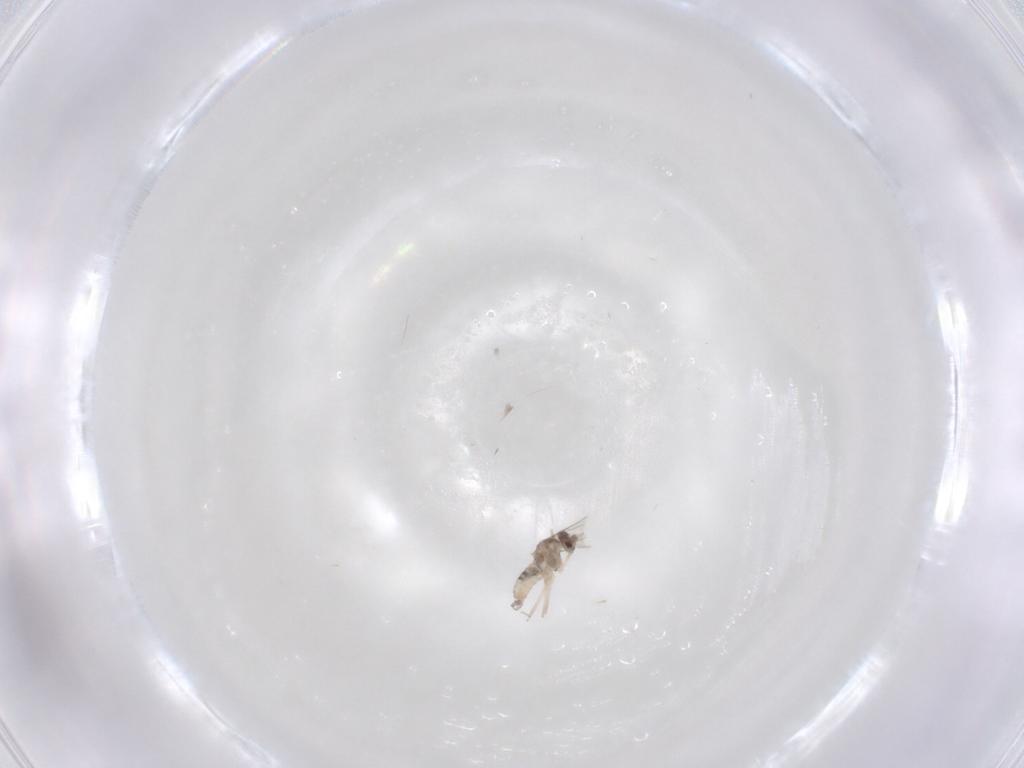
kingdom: Animalia
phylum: Arthropoda
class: Insecta
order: Diptera
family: Cecidomyiidae
